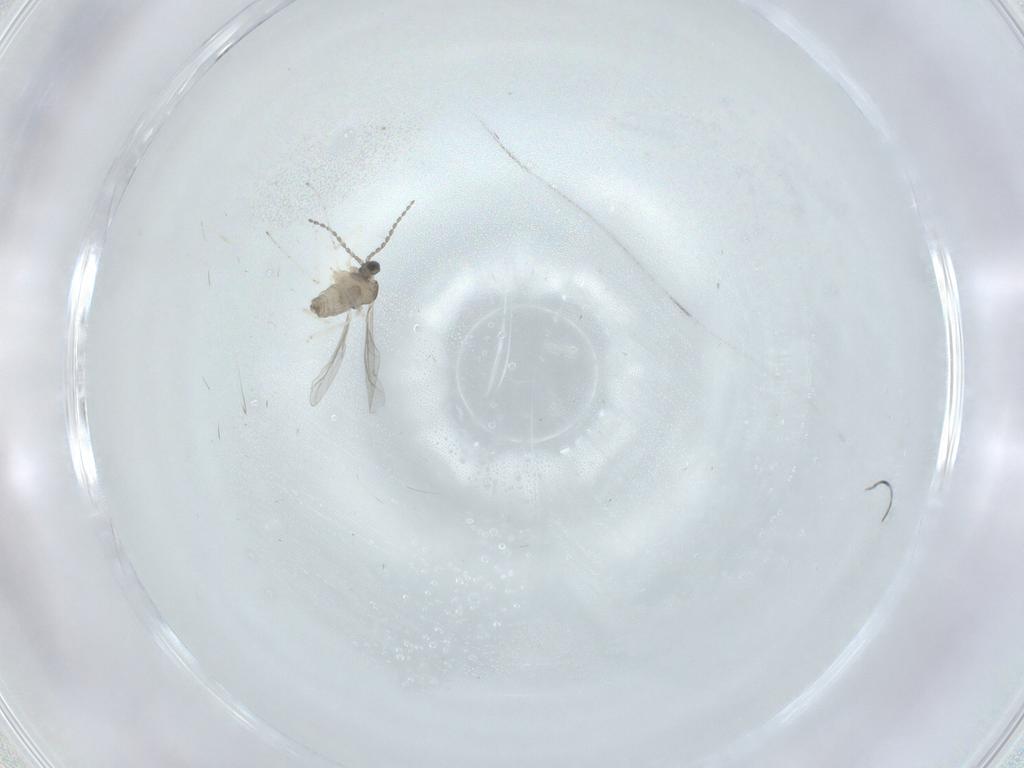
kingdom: Animalia
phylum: Arthropoda
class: Insecta
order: Diptera
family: Cecidomyiidae
